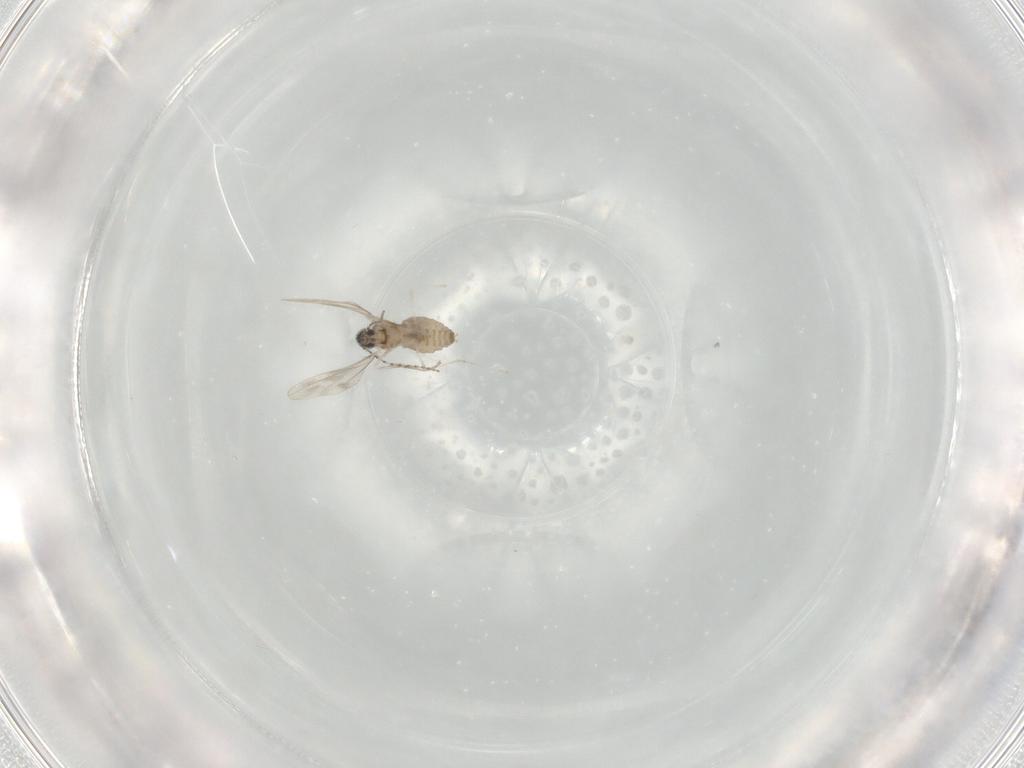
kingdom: Animalia
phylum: Arthropoda
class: Insecta
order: Diptera
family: Cecidomyiidae
